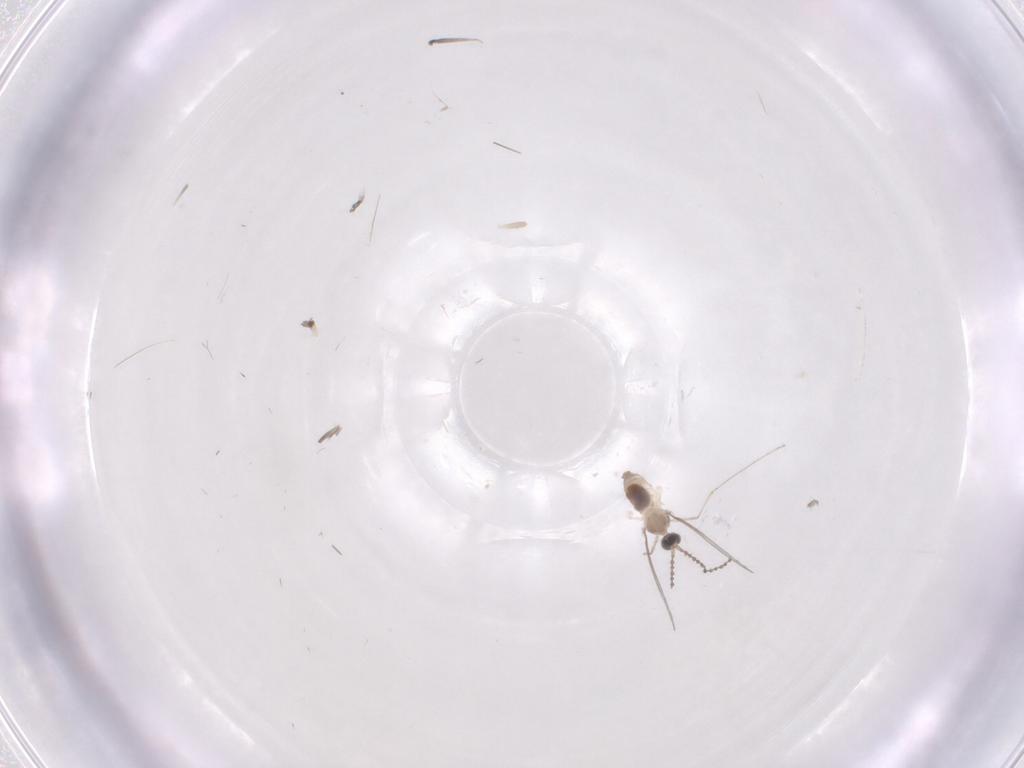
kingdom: Animalia
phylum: Arthropoda
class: Insecta
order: Diptera
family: Cecidomyiidae
